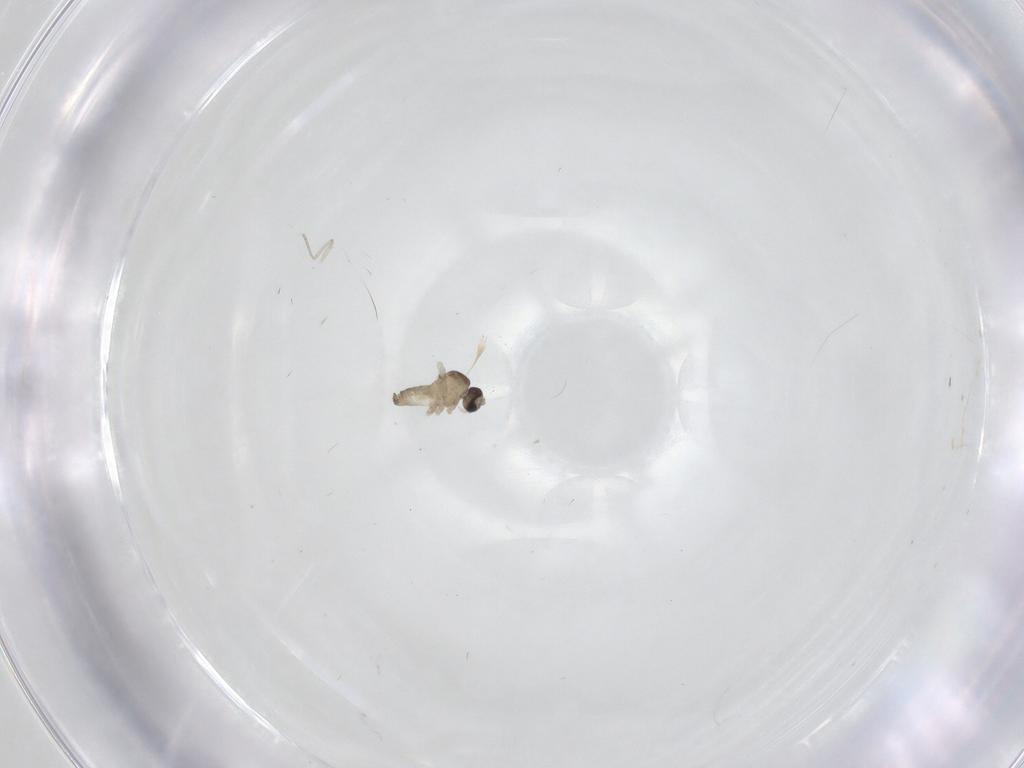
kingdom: Animalia
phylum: Arthropoda
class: Insecta
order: Diptera
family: Cecidomyiidae
